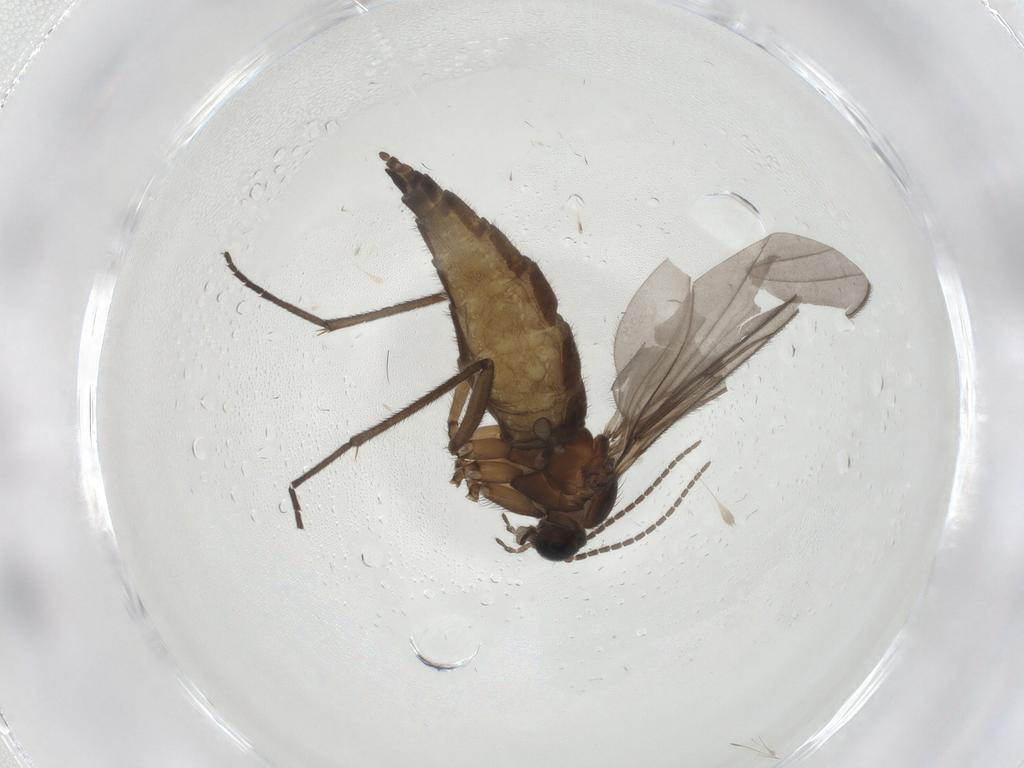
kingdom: Animalia
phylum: Arthropoda
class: Insecta
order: Diptera
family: Sciaridae
